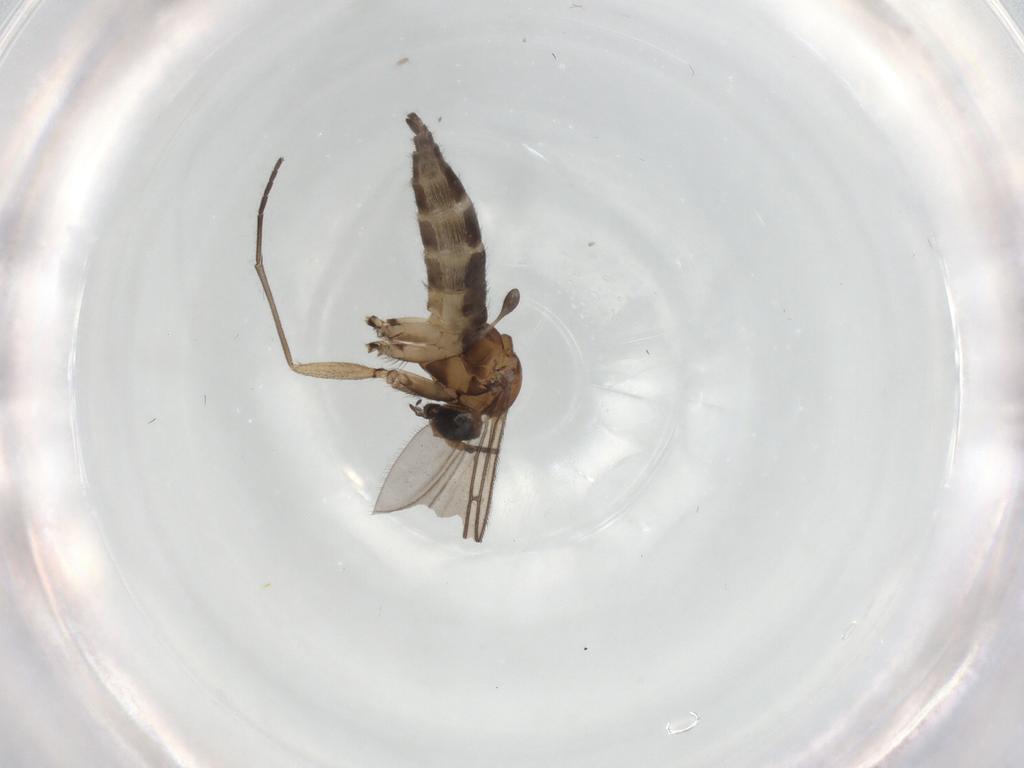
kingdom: Animalia
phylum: Arthropoda
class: Insecta
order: Diptera
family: Sciaridae
